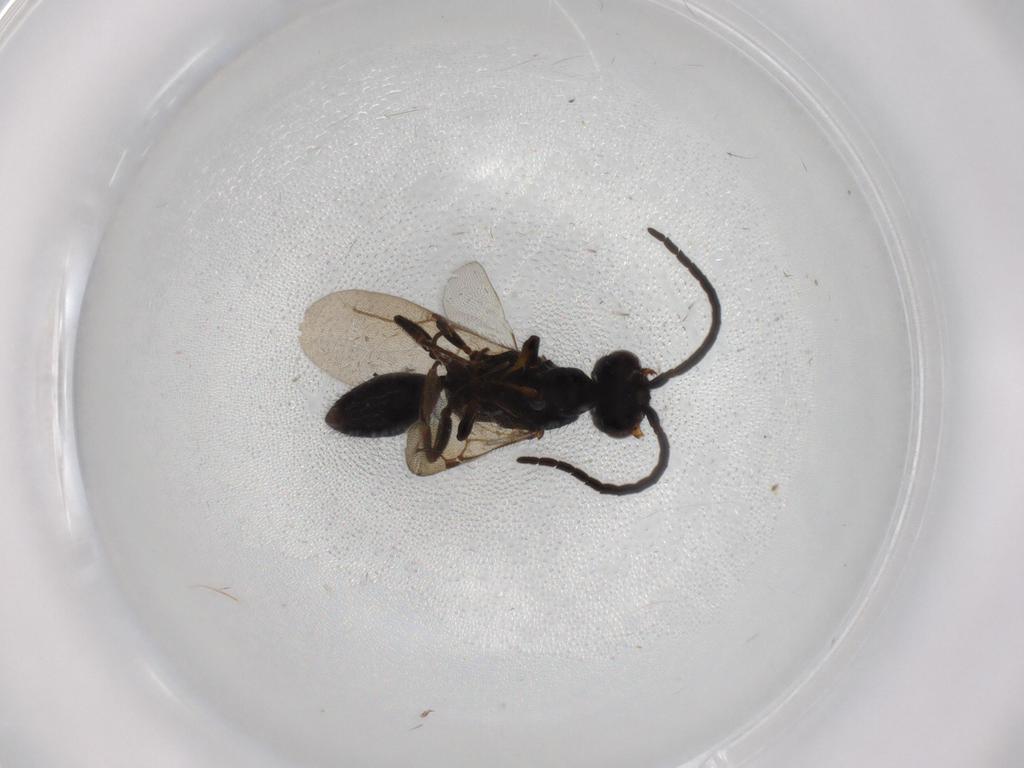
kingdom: Animalia
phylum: Arthropoda
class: Insecta
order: Hymenoptera
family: Bethylidae
